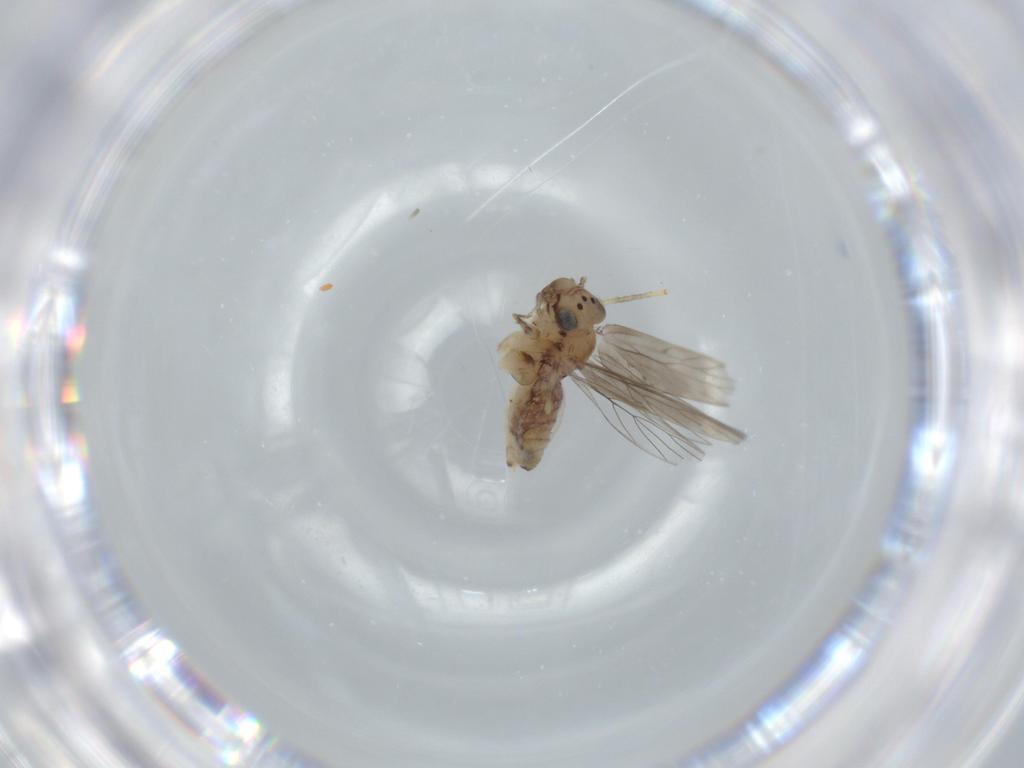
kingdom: Animalia
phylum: Arthropoda
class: Insecta
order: Psocodea
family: Lepidopsocidae
